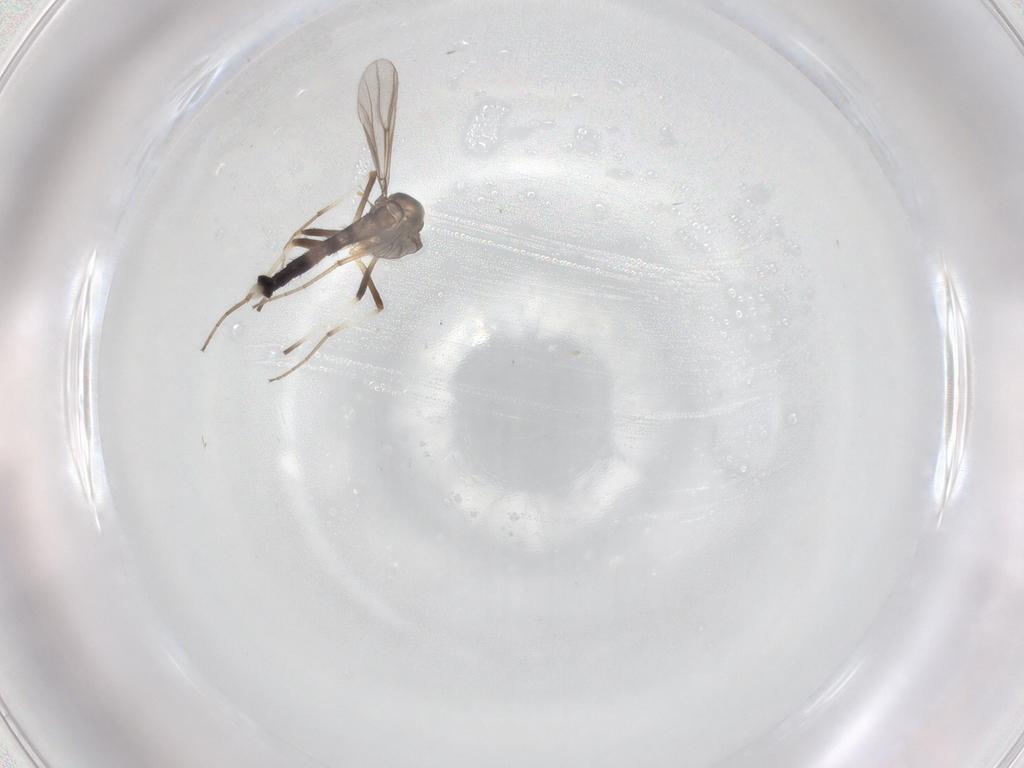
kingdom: Animalia
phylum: Arthropoda
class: Insecta
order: Diptera
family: Chironomidae
